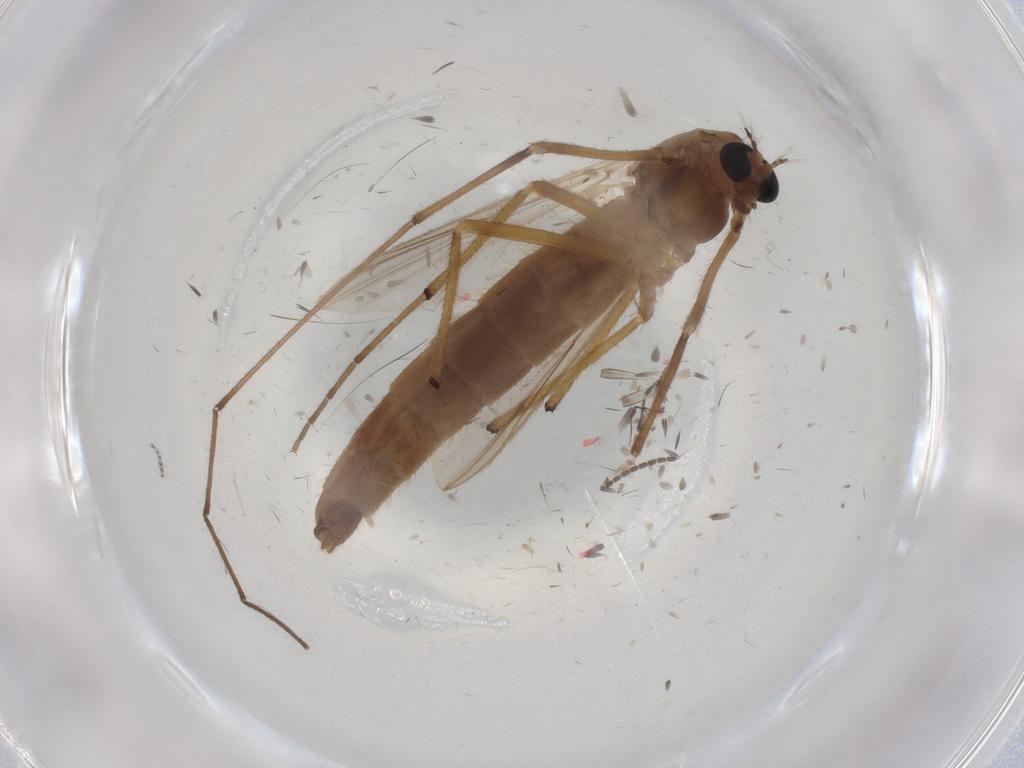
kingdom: Animalia
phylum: Arthropoda
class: Insecta
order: Diptera
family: Chironomidae
